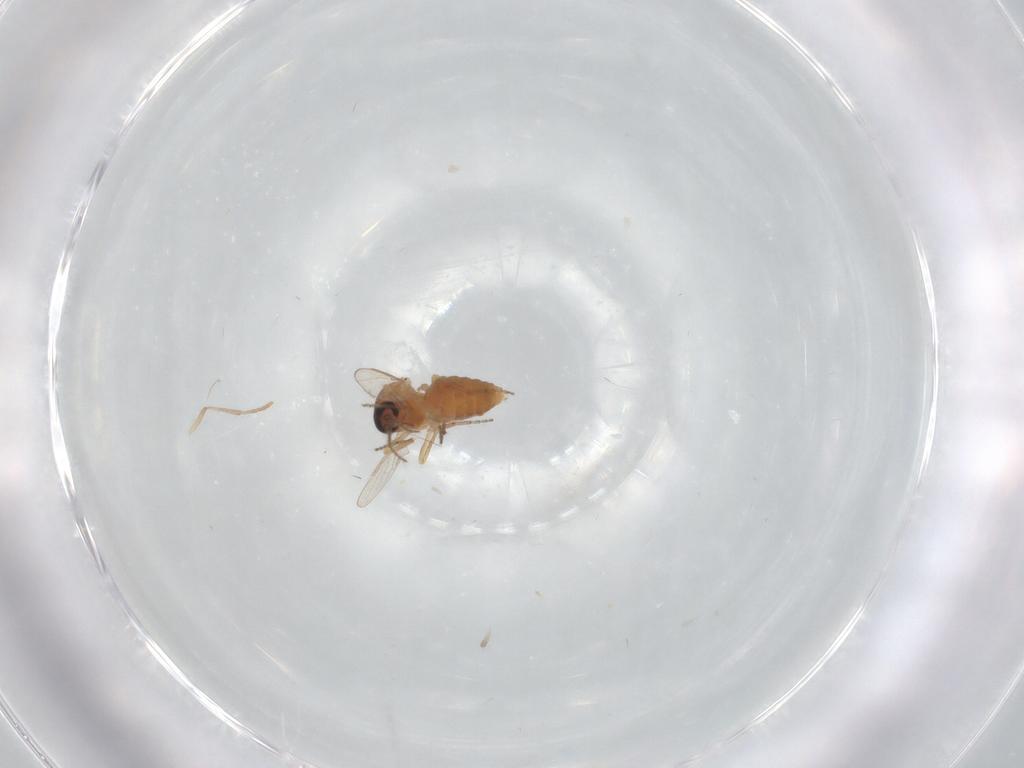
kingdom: Animalia
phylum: Arthropoda
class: Insecta
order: Diptera
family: Ceratopogonidae
